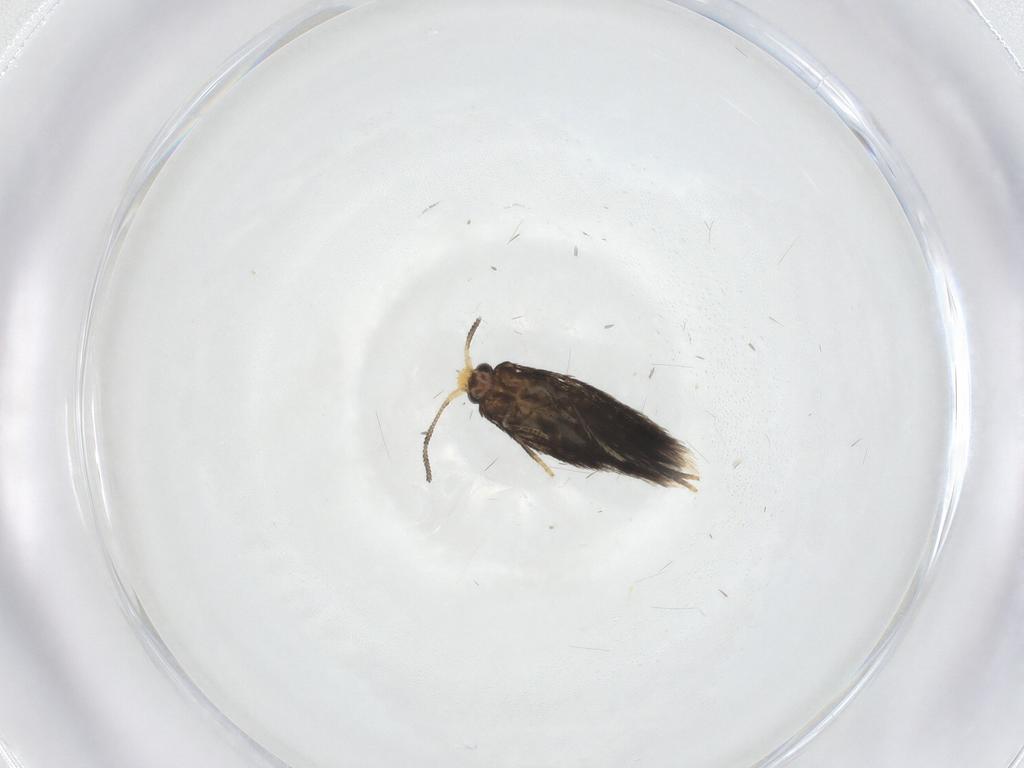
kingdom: Animalia
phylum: Arthropoda
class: Insecta
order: Lepidoptera
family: Nepticulidae
